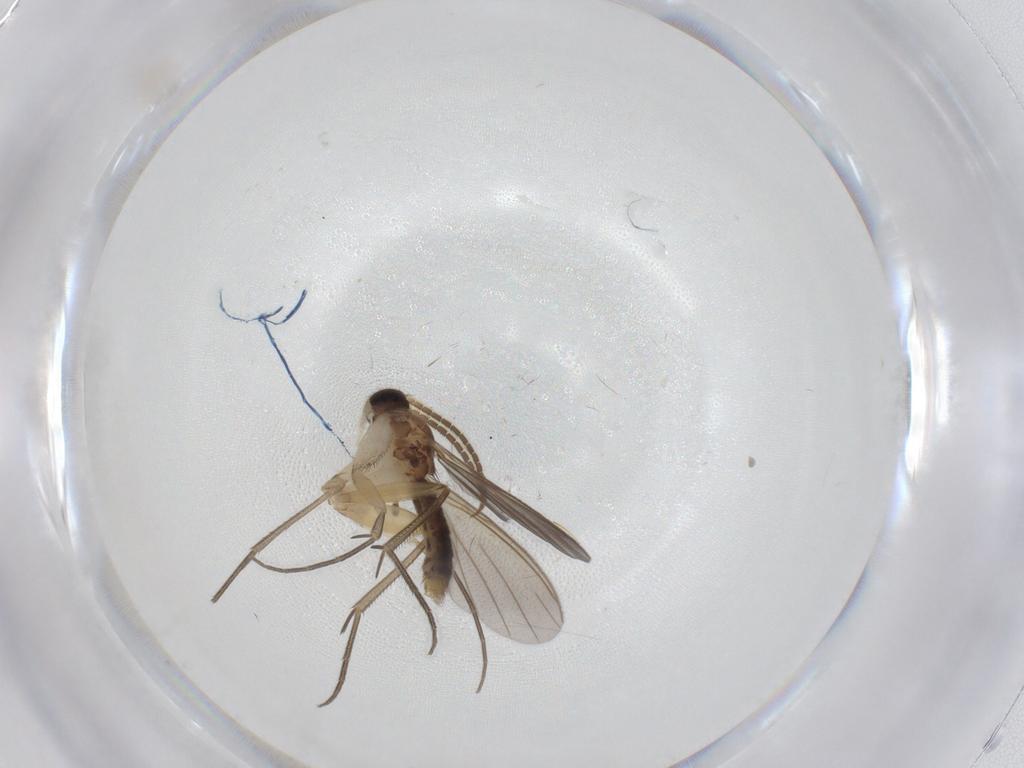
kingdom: Animalia
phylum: Arthropoda
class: Insecta
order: Diptera
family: Mycetophilidae
